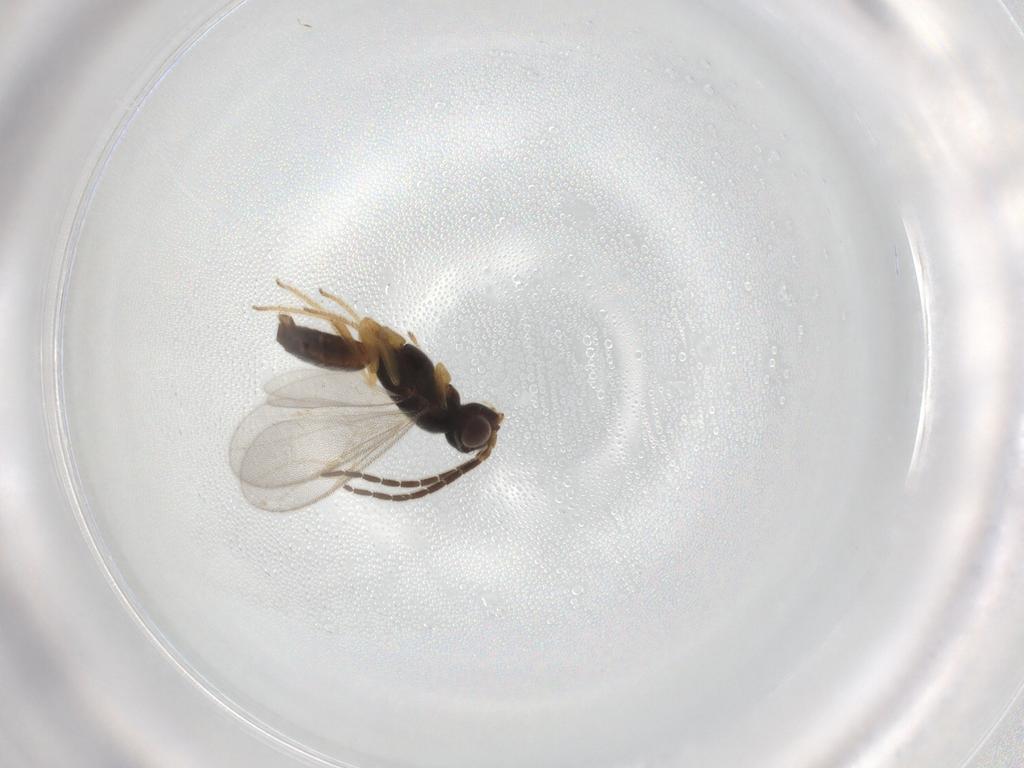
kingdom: Animalia
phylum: Arthropoda
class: Insecta
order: Hymenoptera
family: Dryinidae
